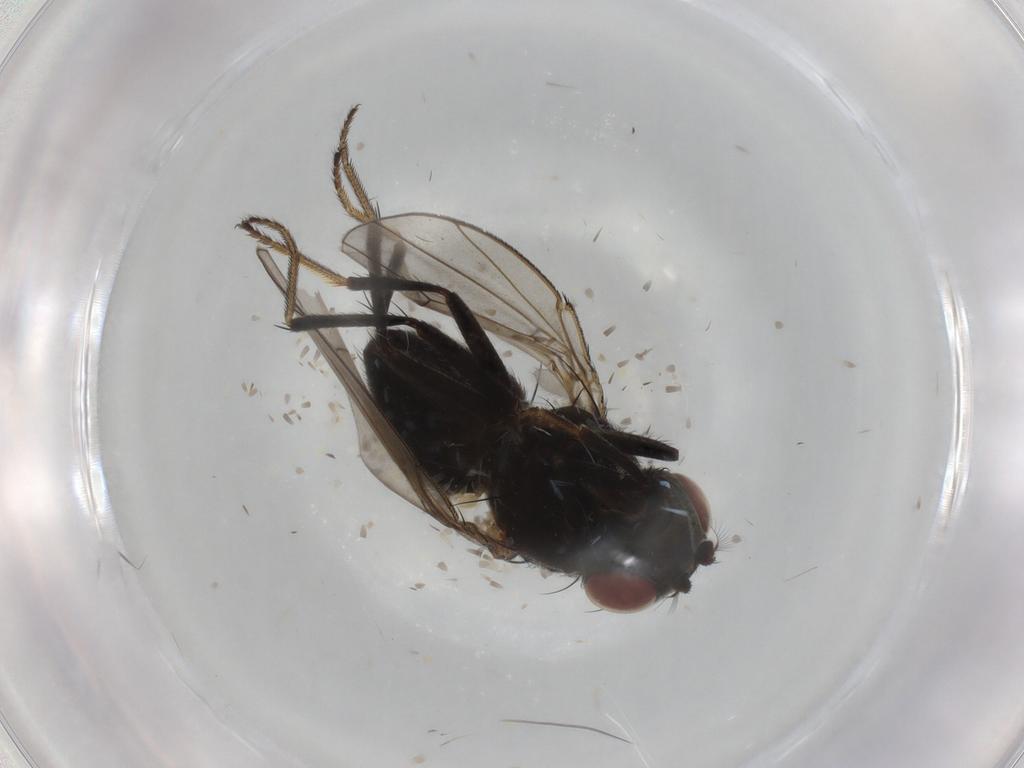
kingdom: Animalia
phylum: Arthropoda
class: Insecta
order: Diptera
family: Ephydridae
